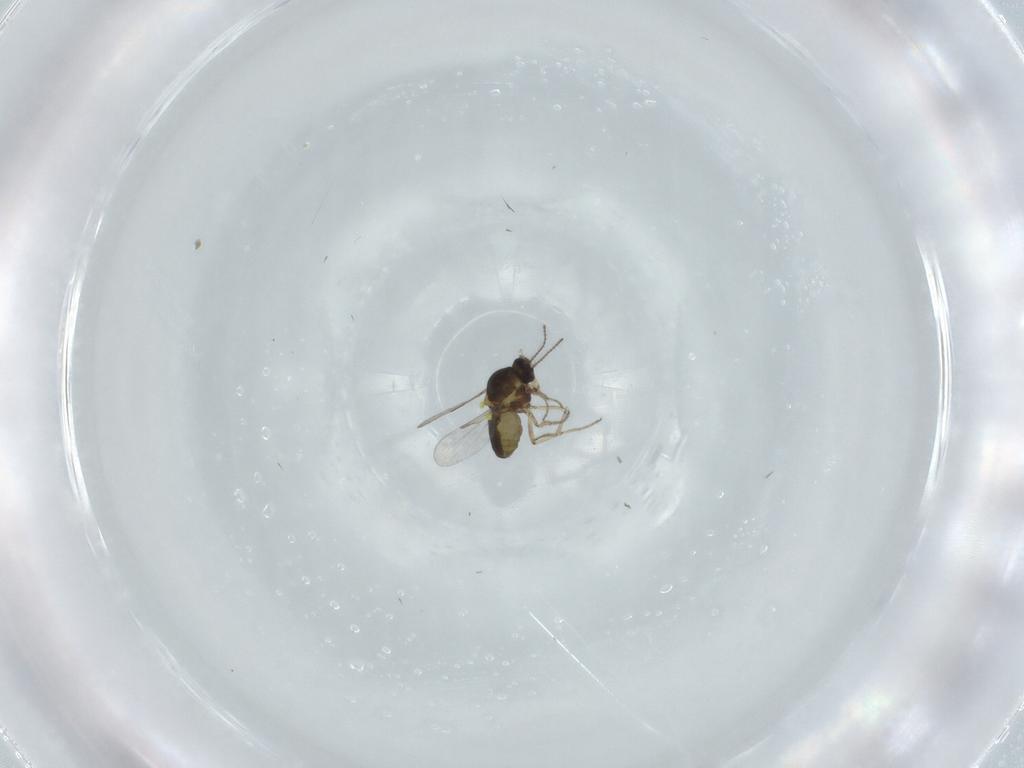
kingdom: Animalia
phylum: Arthropoda
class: Insecta
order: Diptera
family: Ceratopogonidae
